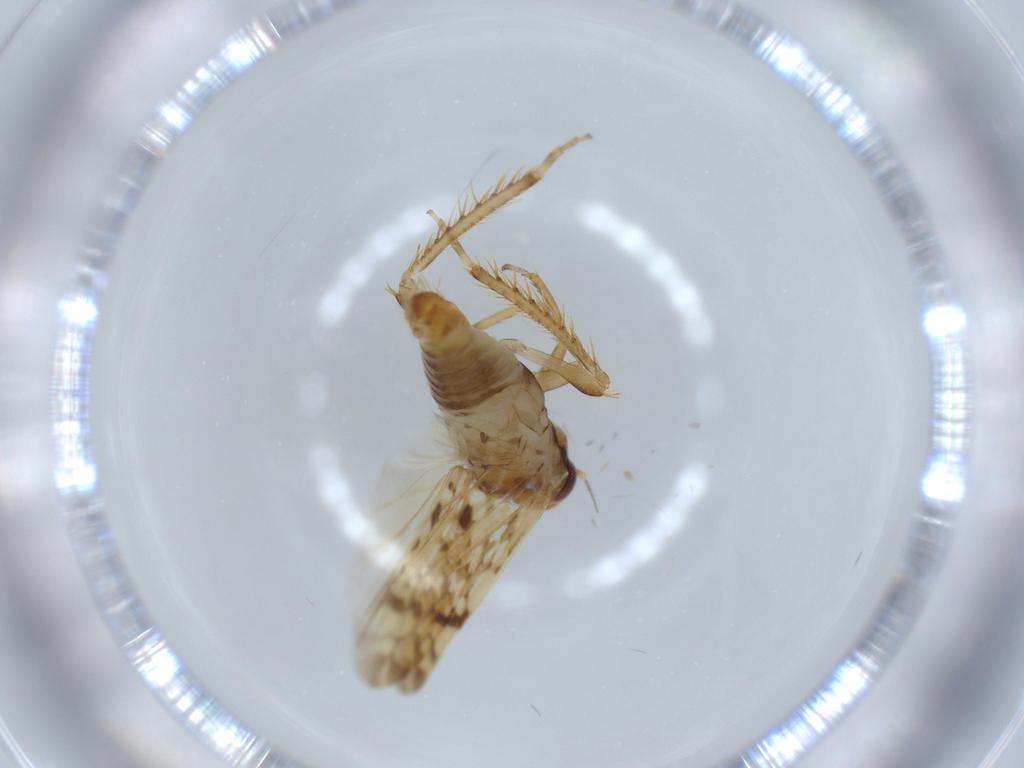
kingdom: Animalia
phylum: Arthropoda
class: Insecta
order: Hemiptera
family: Cicadellidae
